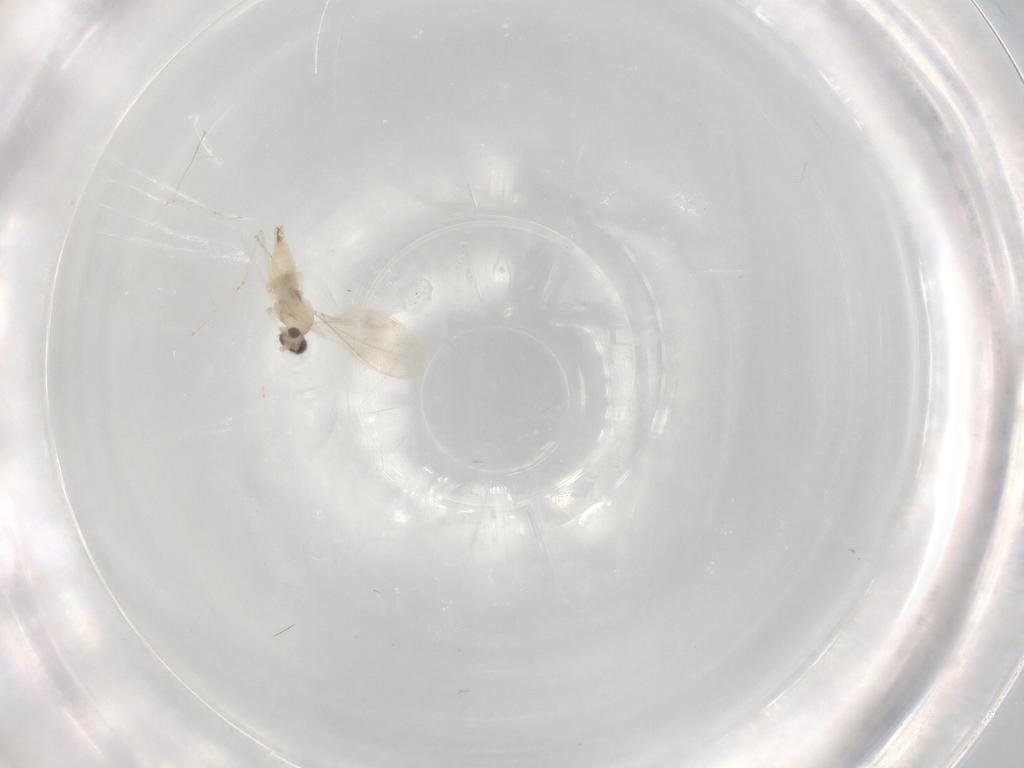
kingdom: Animalia
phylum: Arthropoda
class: Insecta
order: Diptera
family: Cecidomyiidae
